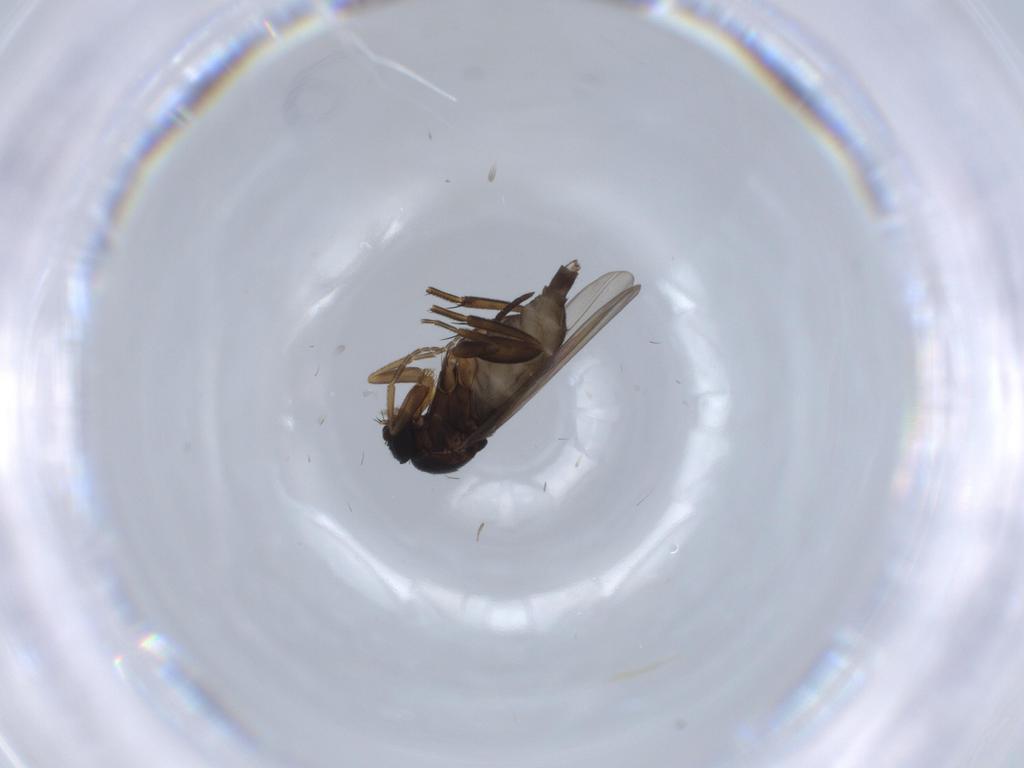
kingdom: Animalia
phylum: Arthropoda
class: Insecta
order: Diptera
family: Phoridae
